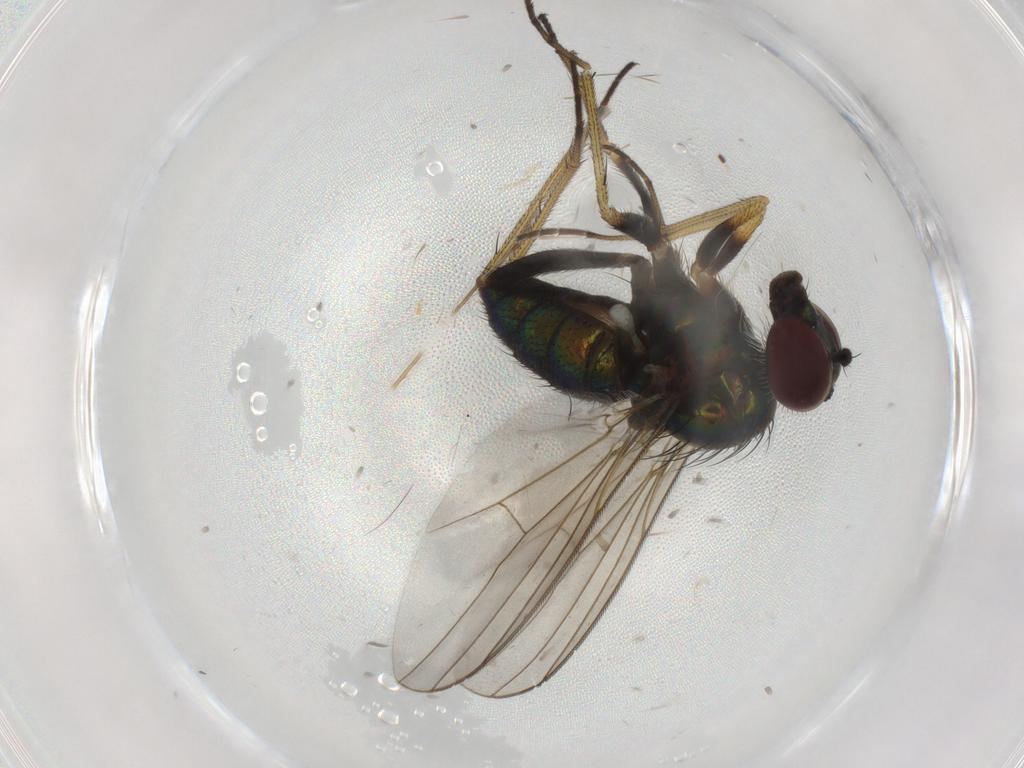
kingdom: Animalia
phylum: Arthropoda
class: Insecta
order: Diptera
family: Dolichopodidae
